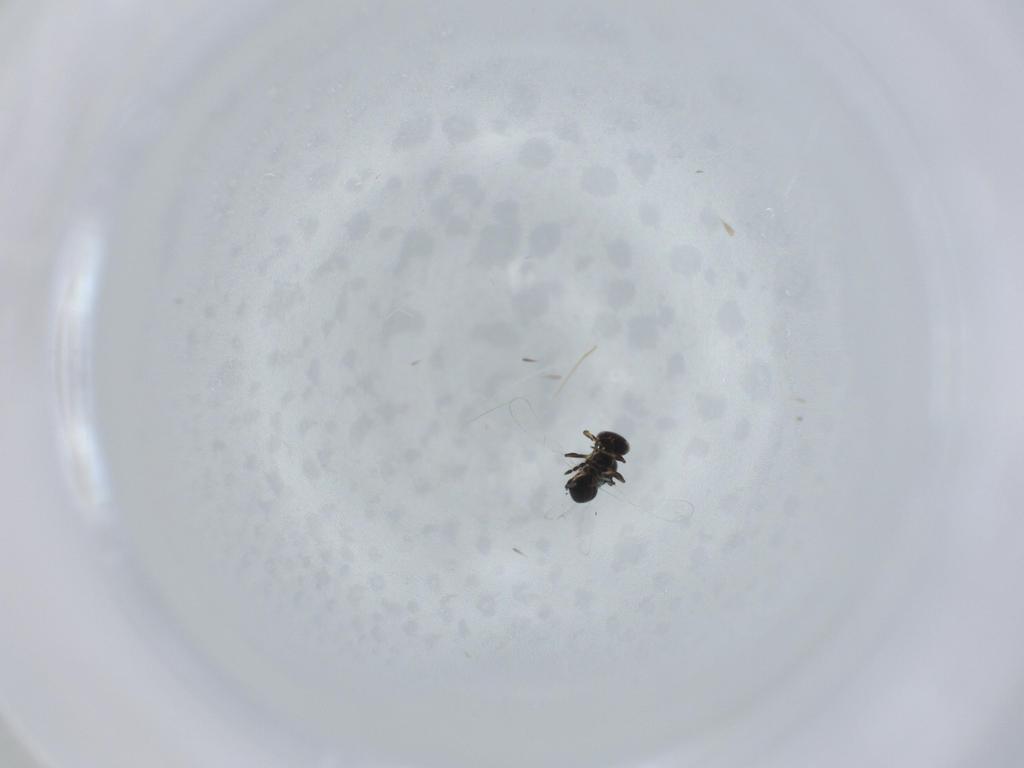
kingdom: Animalia
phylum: Arthropoda
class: Insecta
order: Hymenoptera
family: Platygastridae
